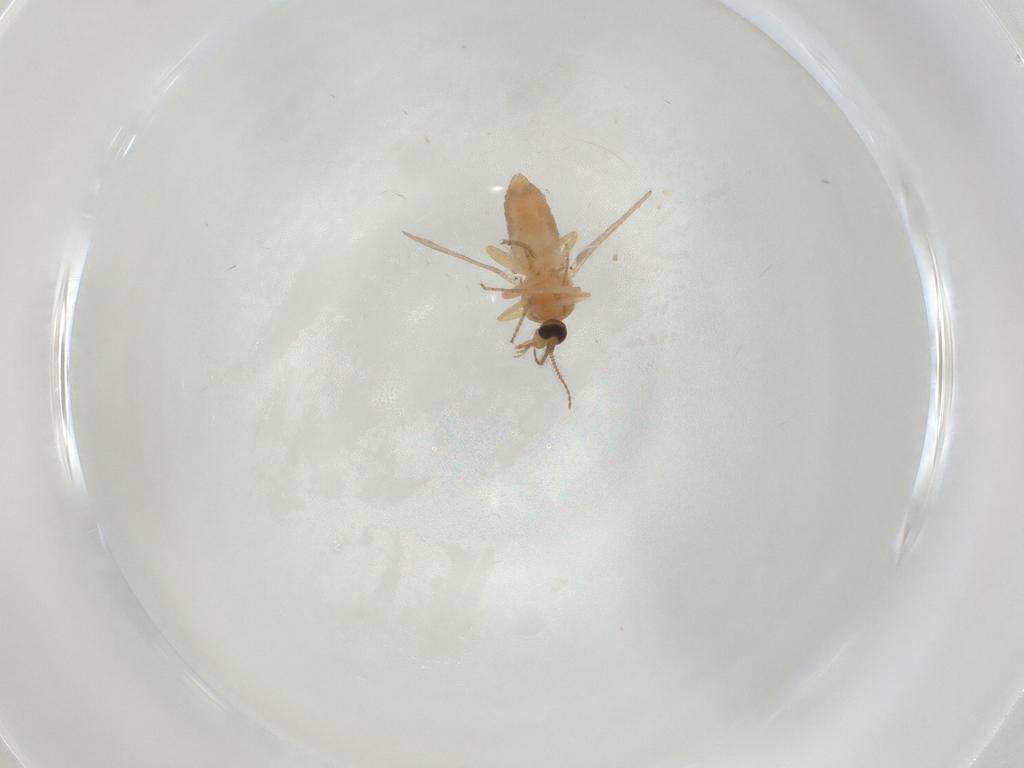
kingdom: Animalia
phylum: Arthropoda
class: Insecta
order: Diptera
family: Ceratopogonidae
